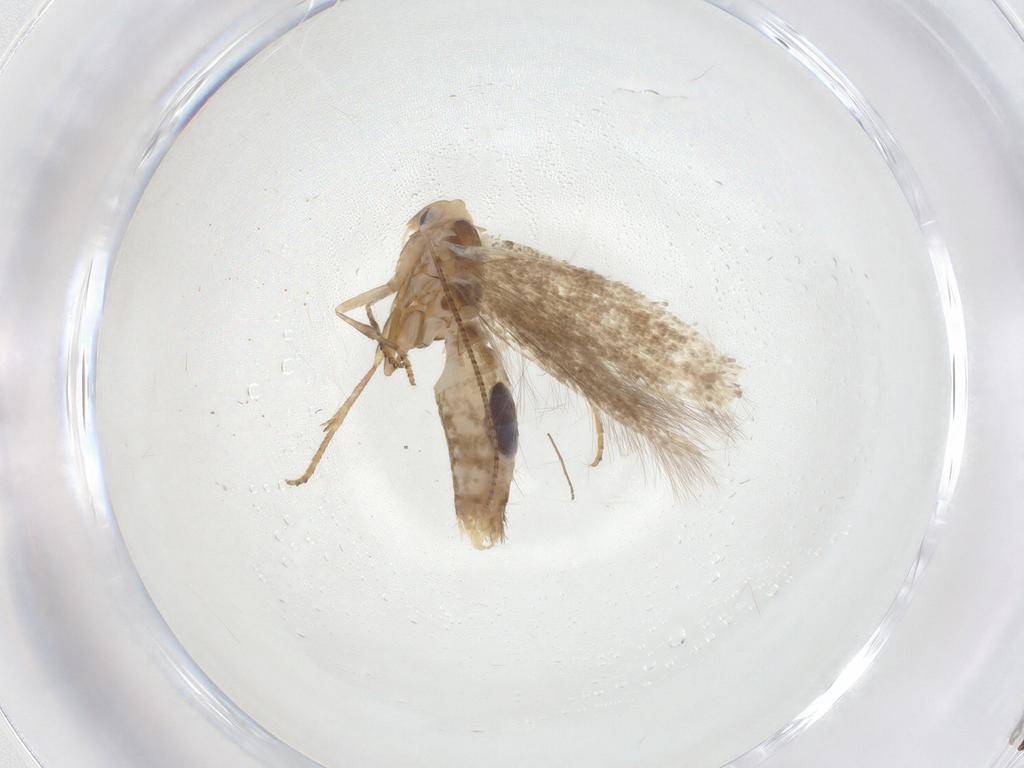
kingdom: Animalia
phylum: Arthropoda
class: Insecta
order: Lepidoptera
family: Bucculatricidae
